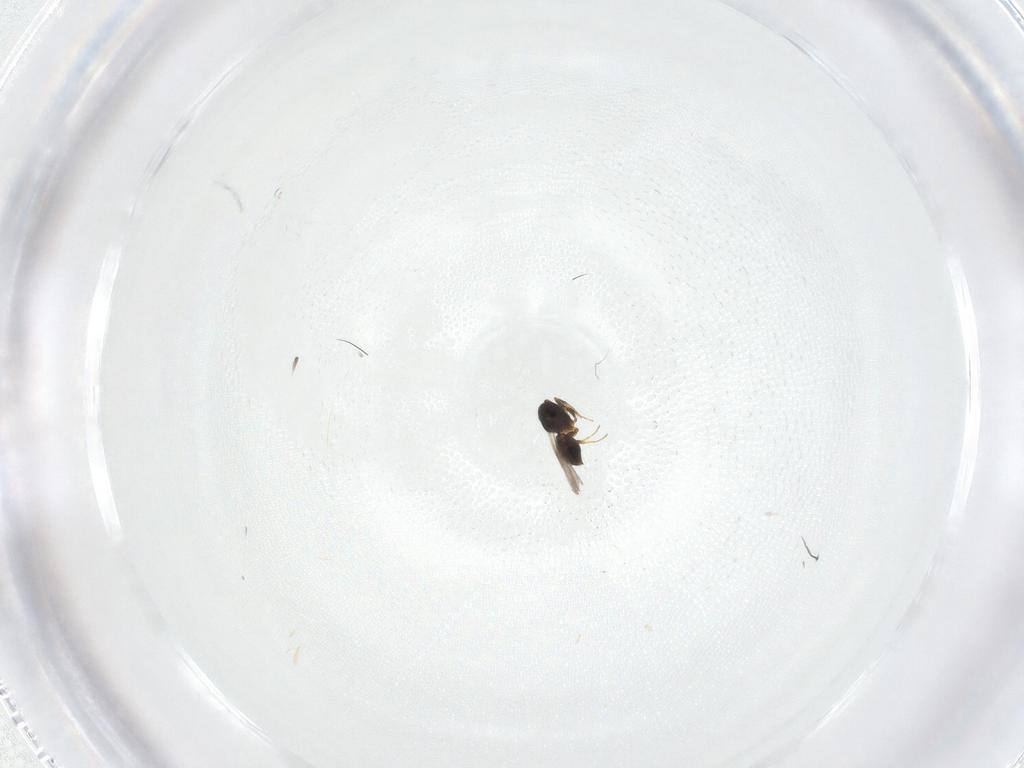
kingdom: Animalia
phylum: Arthropoda
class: Insecta
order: Hymenoptera
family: Ceraphronidae
